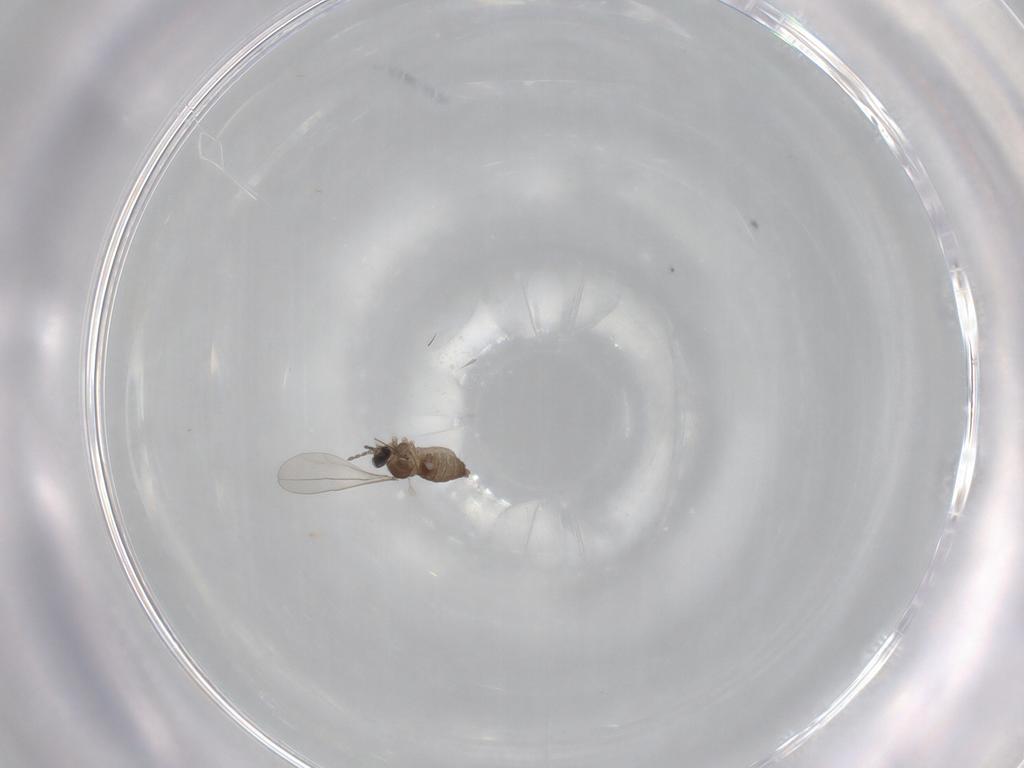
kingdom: Animalia
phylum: Arthropoda
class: Insecta
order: Diptera
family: Cecidomyiidae
